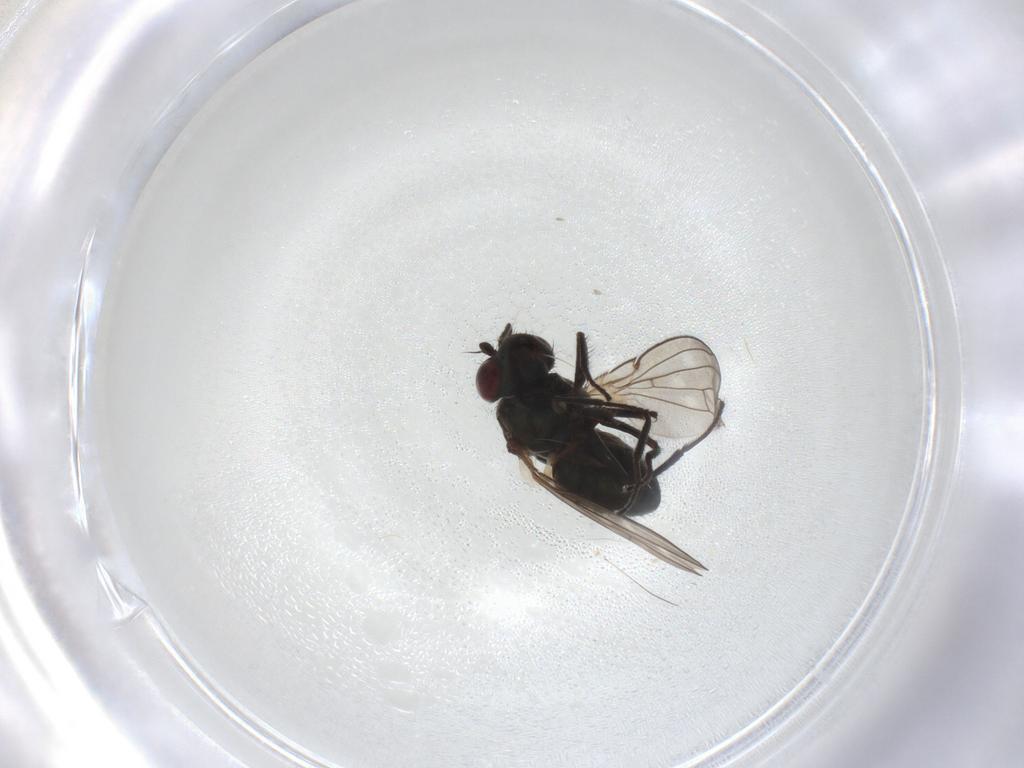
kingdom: Animalia
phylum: Arthropoda
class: Insecta
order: Diptera
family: Ephydridae
